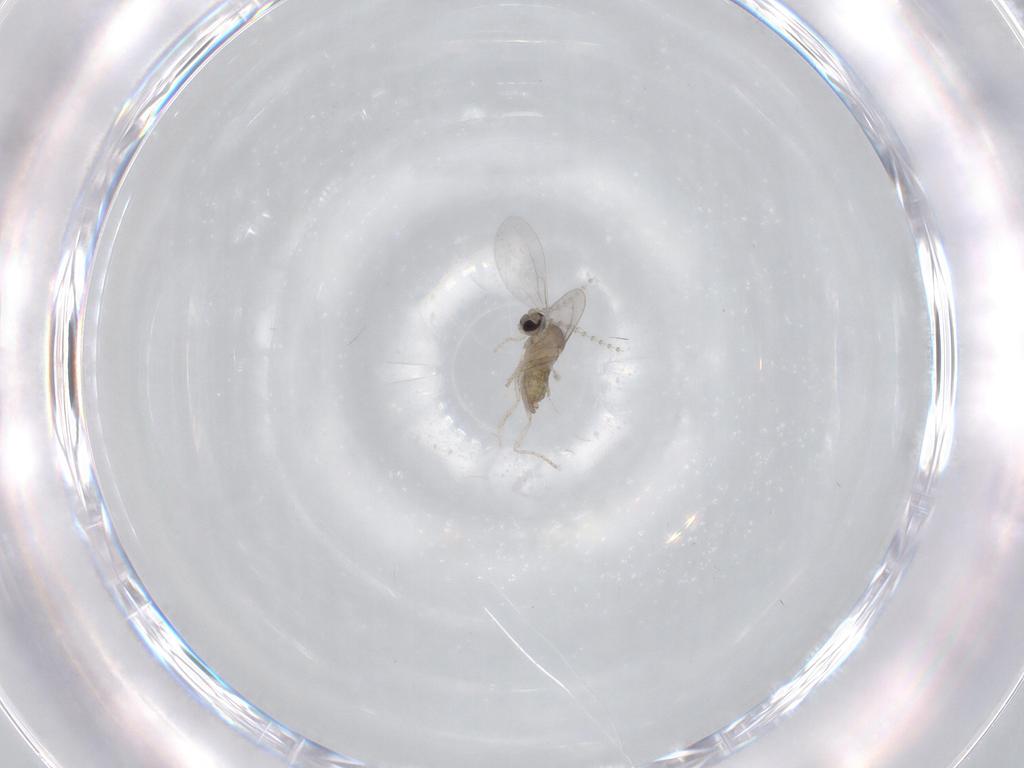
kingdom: Animalia
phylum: Arthropoda
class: Insecta
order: Diptera
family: Cecidomyiidae
